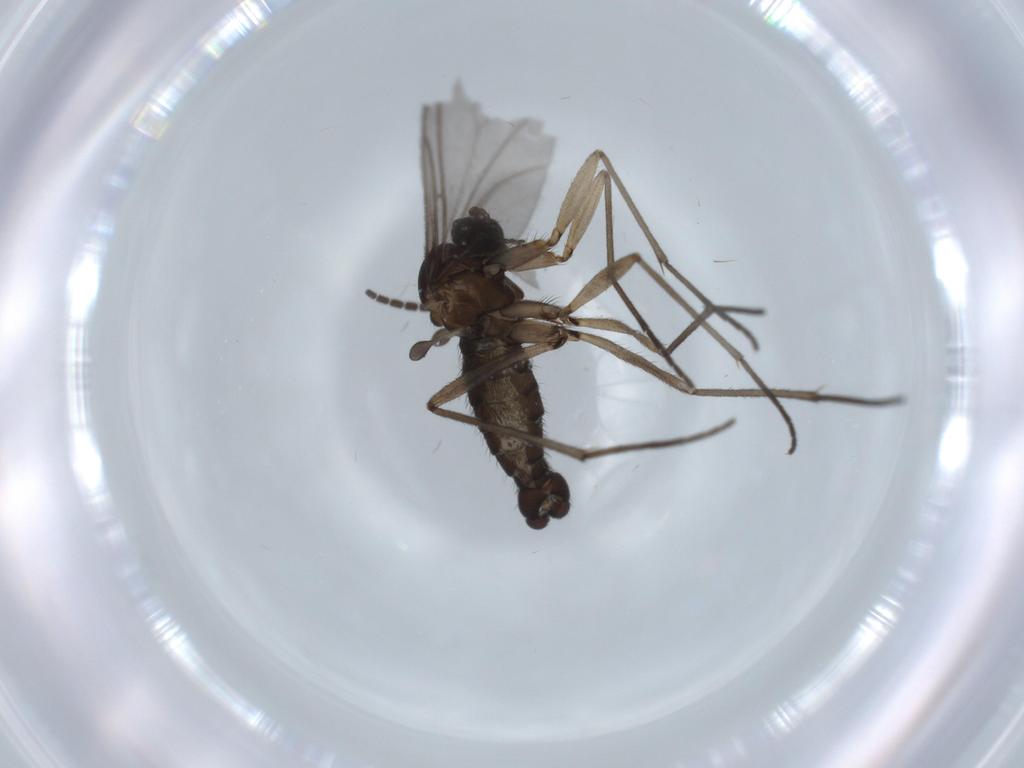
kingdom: Animalia
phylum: Arthropoda
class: Insecta
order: Diptera
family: Sciaridae
